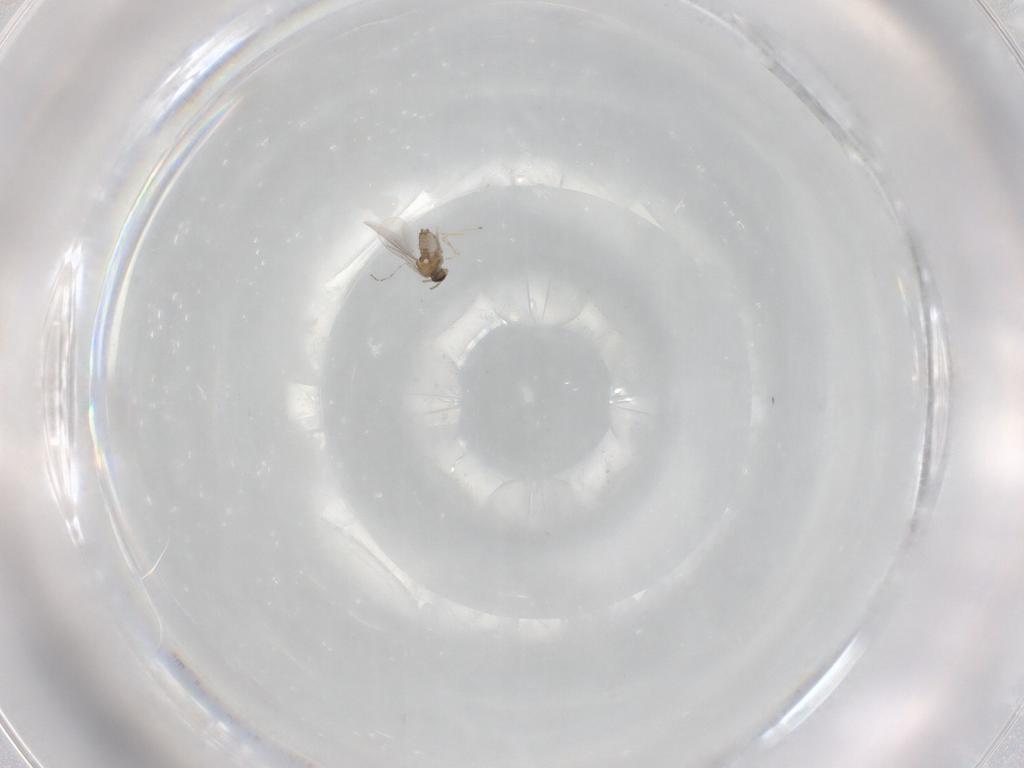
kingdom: Animalia
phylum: Arthropoda
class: Insecta
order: Diptera
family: Cecidomyiidae
